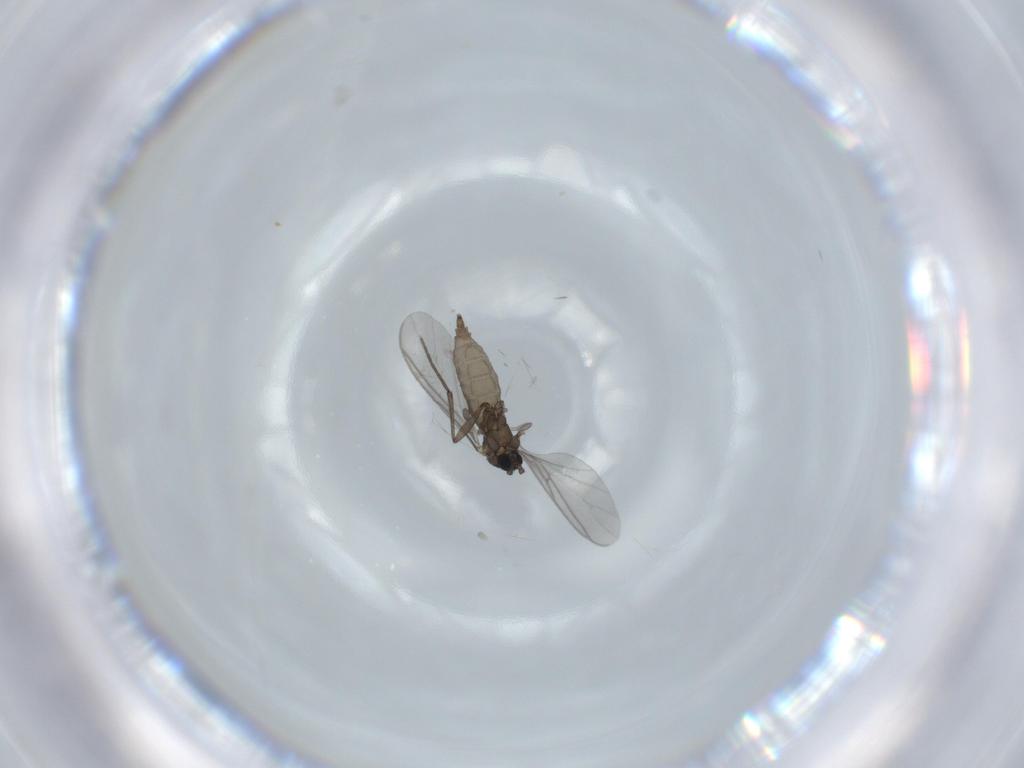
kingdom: Animalia
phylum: Arthropoda
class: Insecta
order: Diptera
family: Sciaridae
